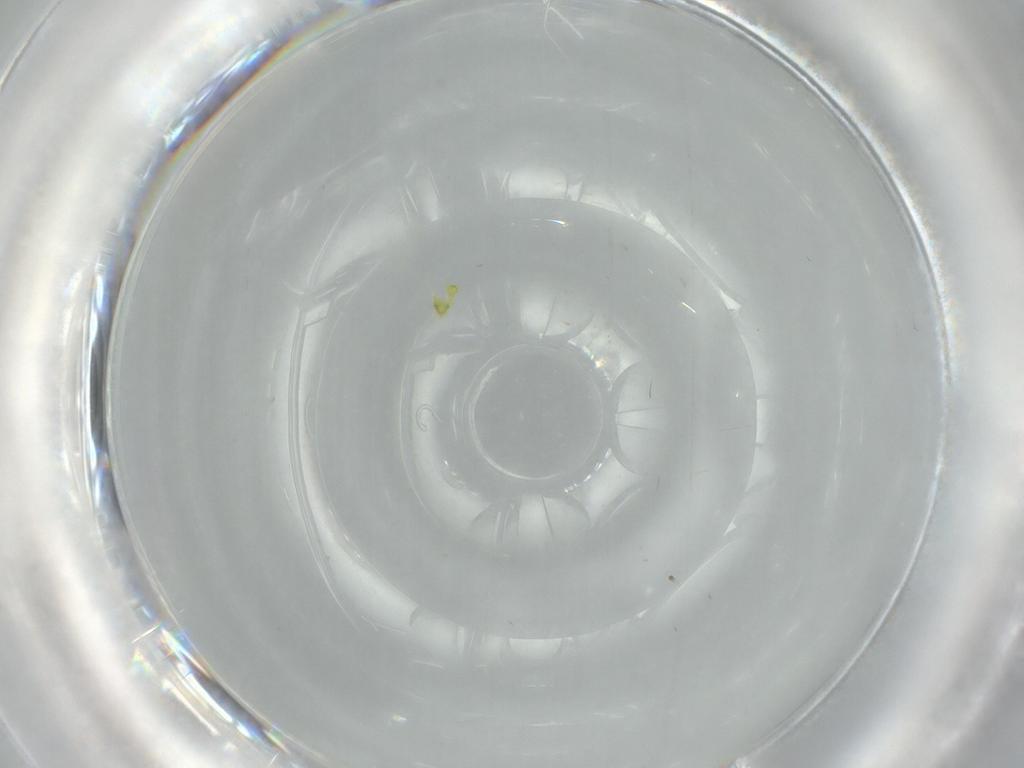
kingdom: Animalia
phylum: Arthropoda
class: Arachnida
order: Trombidiformes
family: Tydeidae
